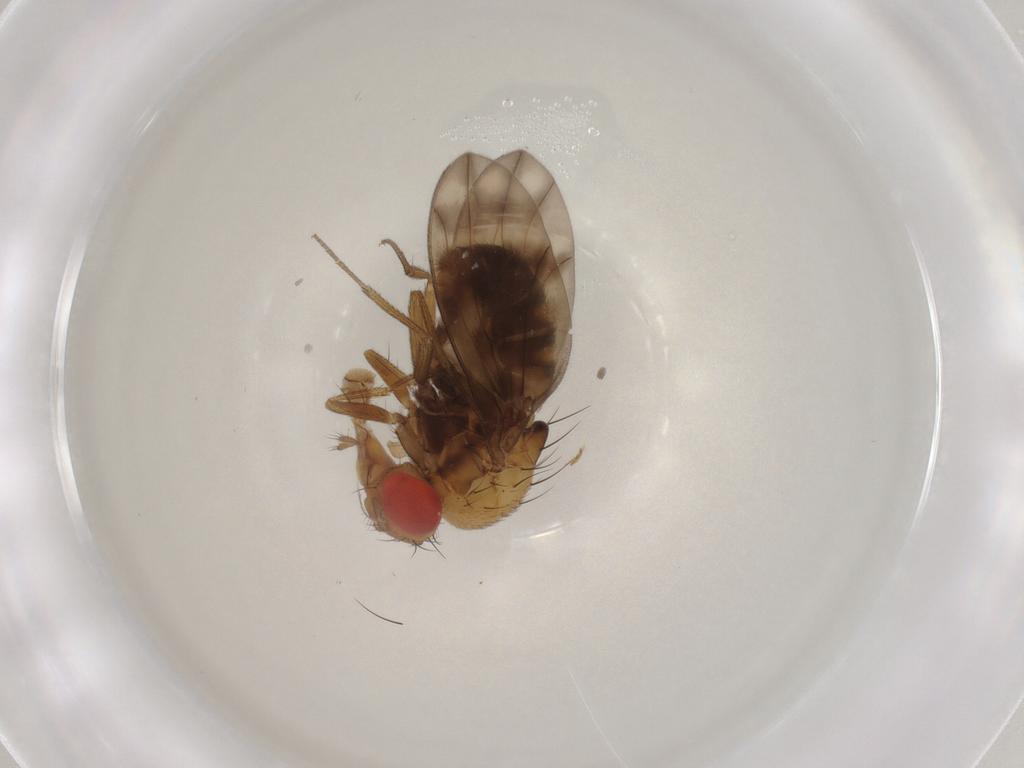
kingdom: Animalia
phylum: Arthropoda
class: Insecta
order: Diptera
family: Drosophilidae
